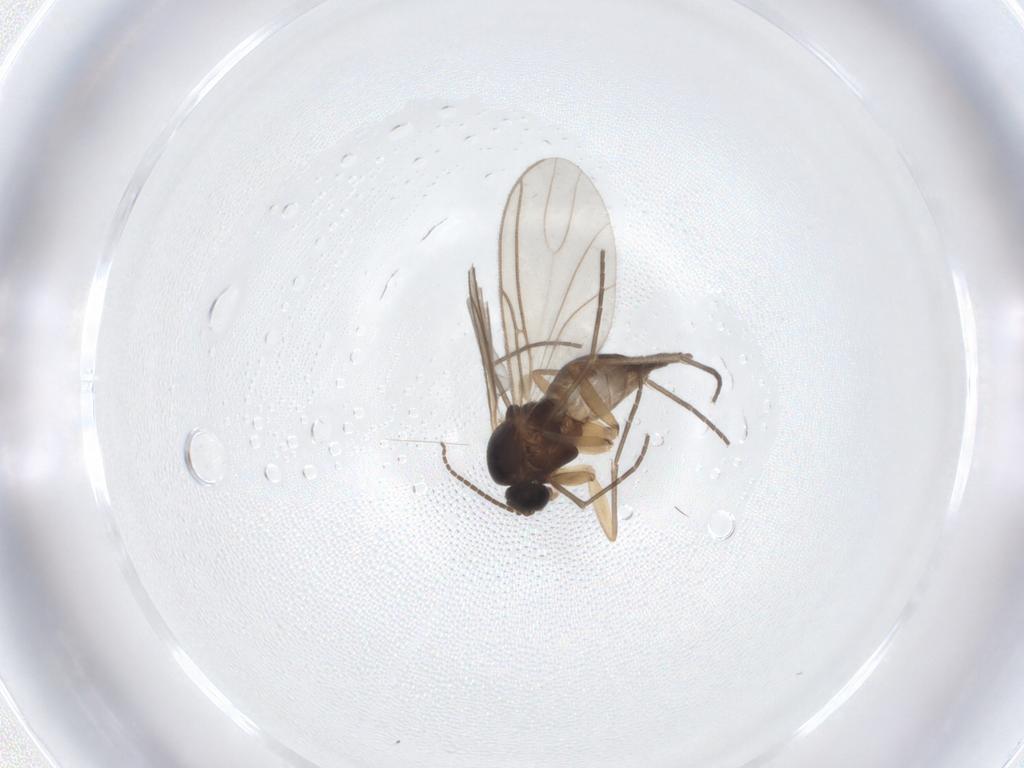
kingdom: Animalia
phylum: Arthropoda
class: Insecta
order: Diptera
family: Sciaridae
